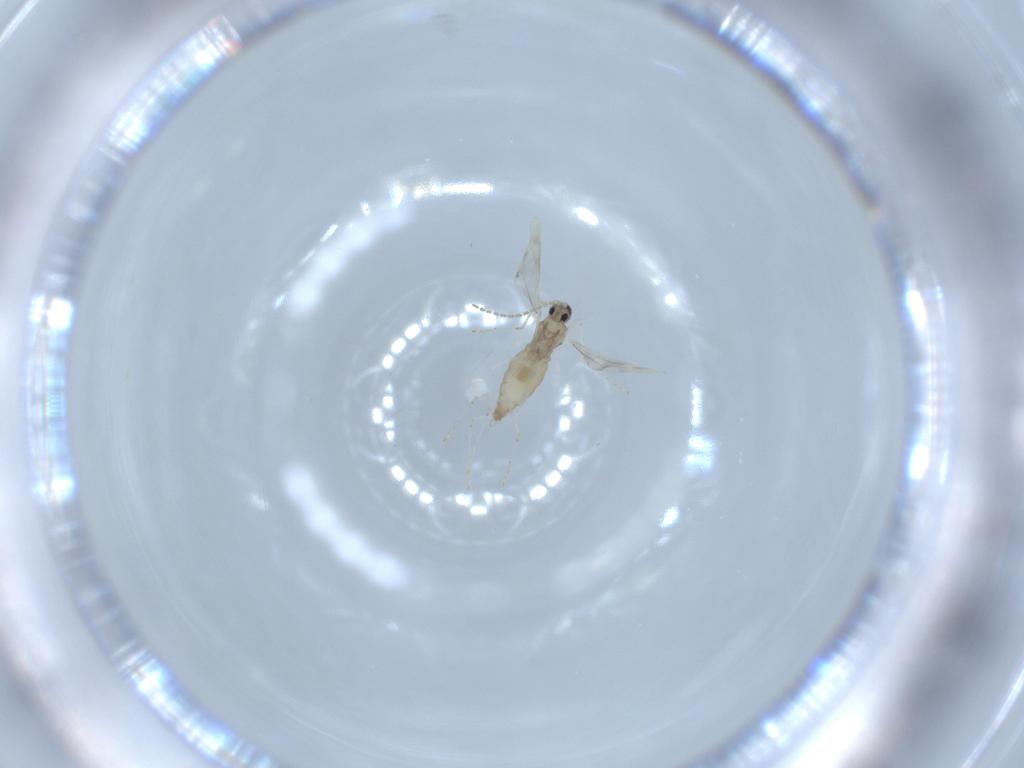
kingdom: Animalia
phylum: Arthropoda
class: Insecta
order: Diptera
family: Cecidomyiidae
